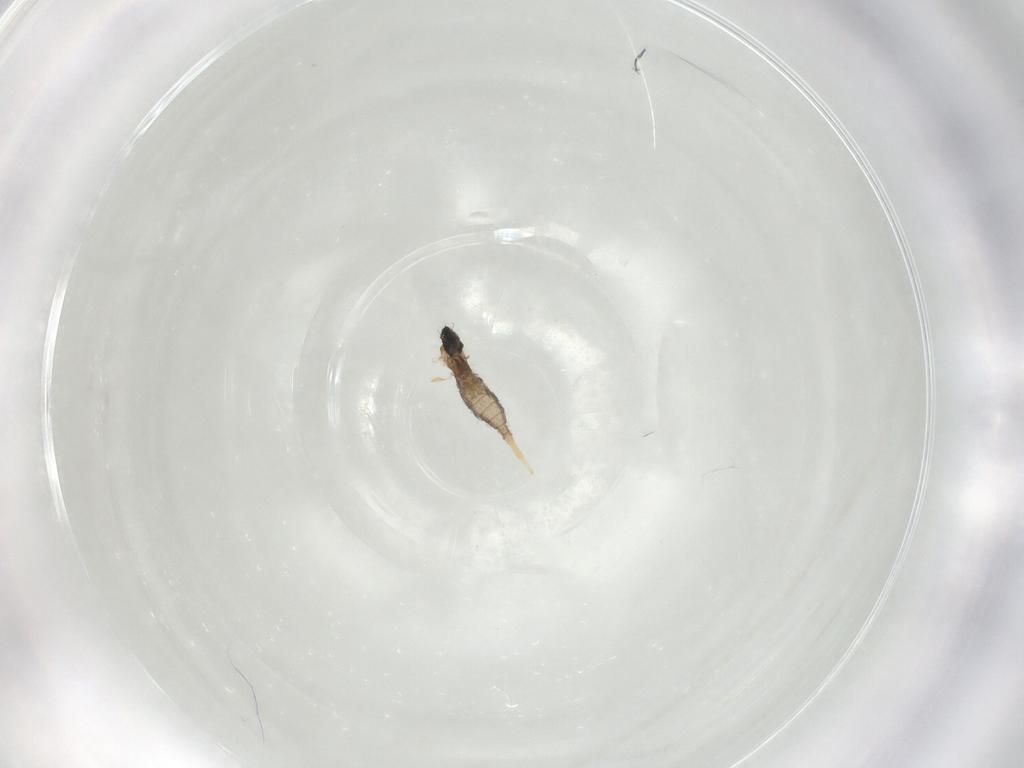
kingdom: Animalia
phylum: Arthropoda
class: Insecta
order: Diptera
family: Cecidomyiidae
